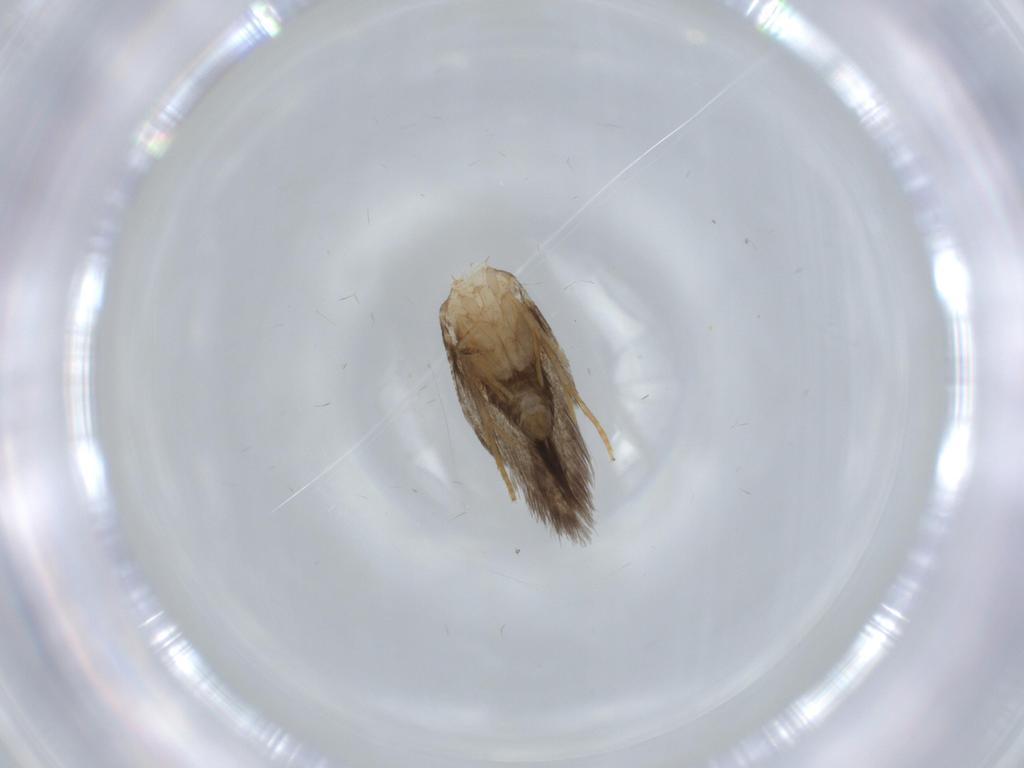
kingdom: Animalia
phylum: Arthropoda
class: Insecta
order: Lepidoptera
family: Nepticulidae
